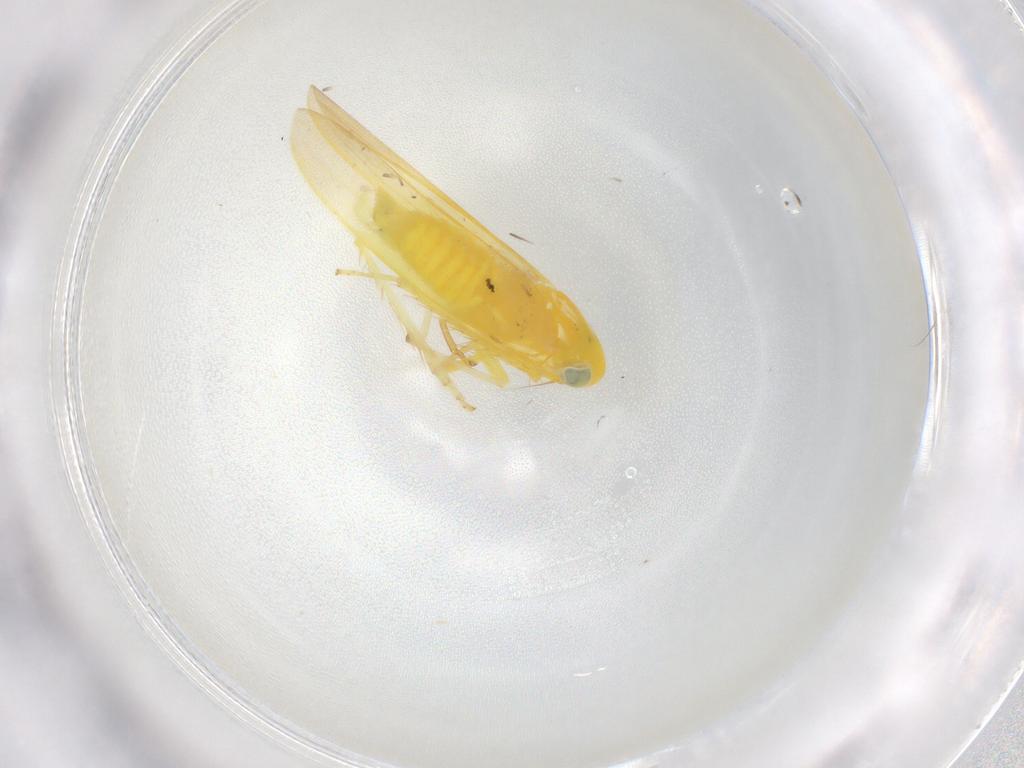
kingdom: Animalia
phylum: Arthropoda
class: Insecta
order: Hemiptera
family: Cicadellidae
